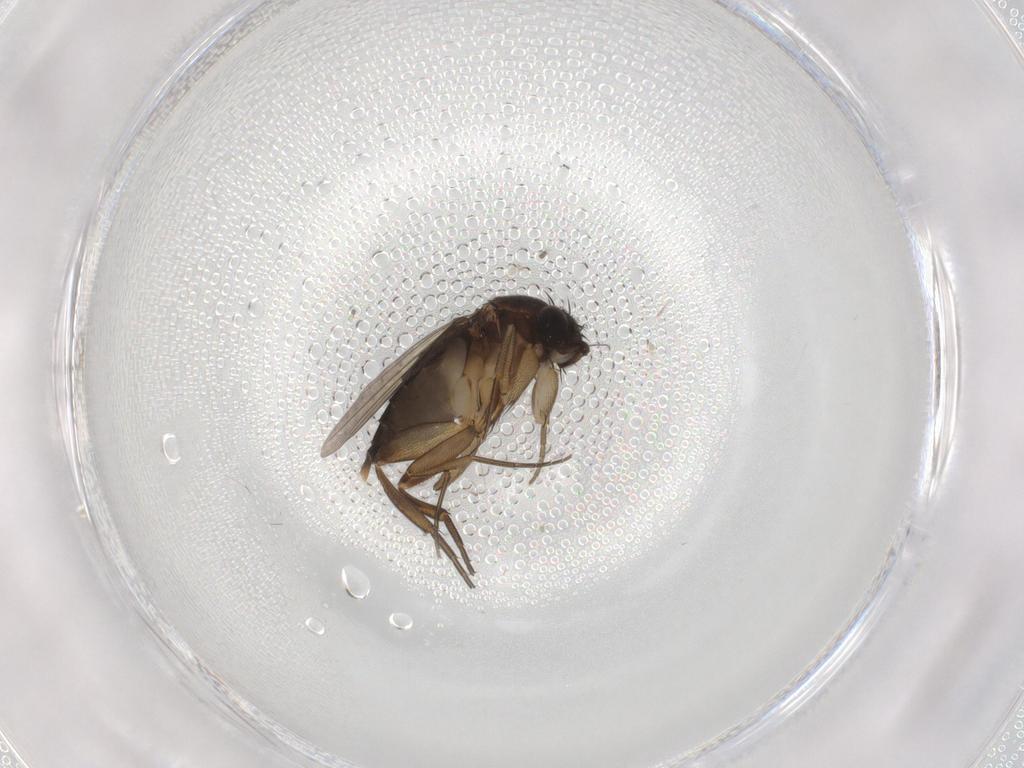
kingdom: Animalia
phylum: Arthropoda
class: Insecta
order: Diptera
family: Phoridae
